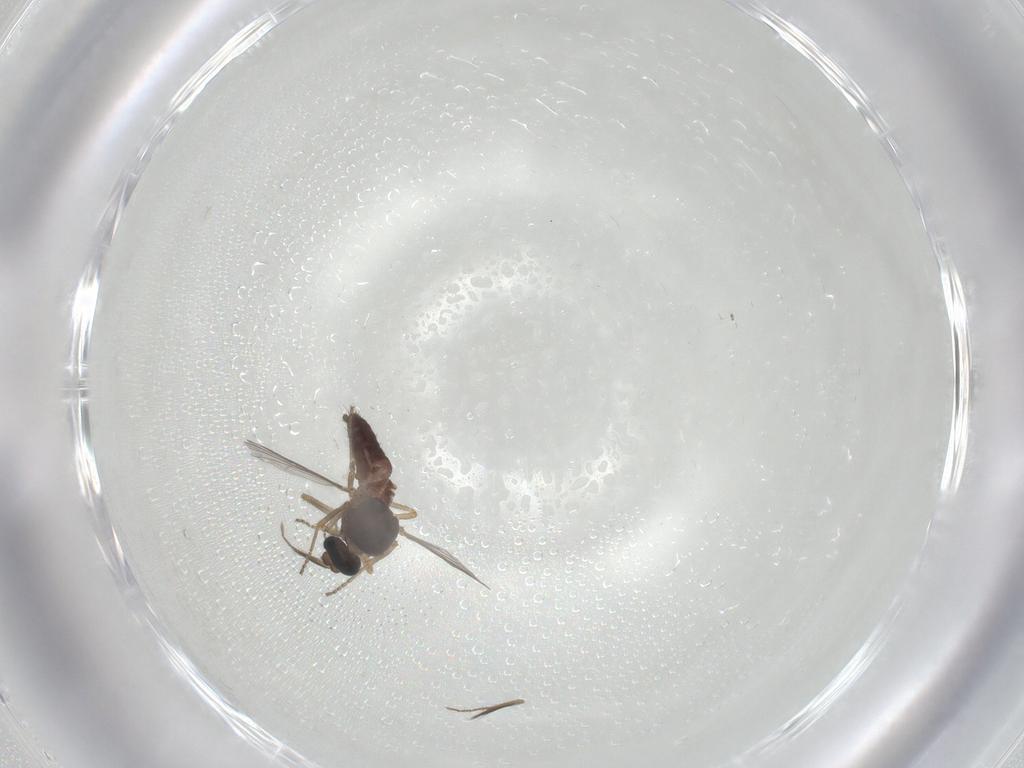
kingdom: Animalia
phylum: Arthropoda
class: Insecta
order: Diptera
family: Ceratopogonidae
